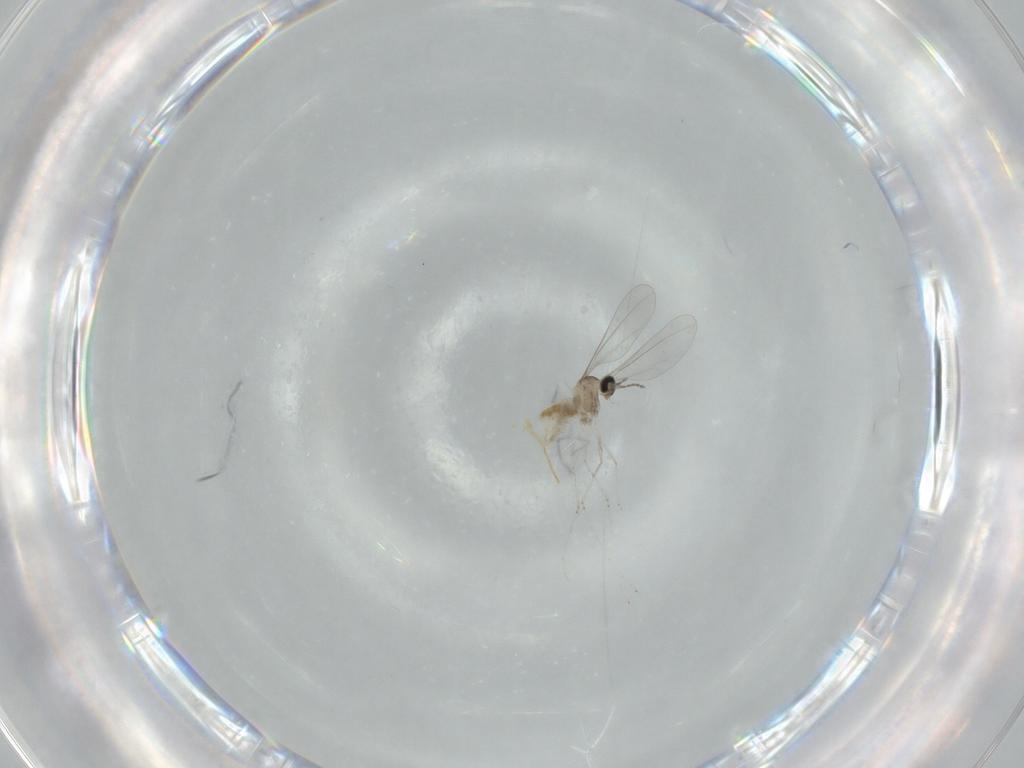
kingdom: Animalia
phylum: Arthropoda
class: Insecta
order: Diptera
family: Cecidomyiidae
